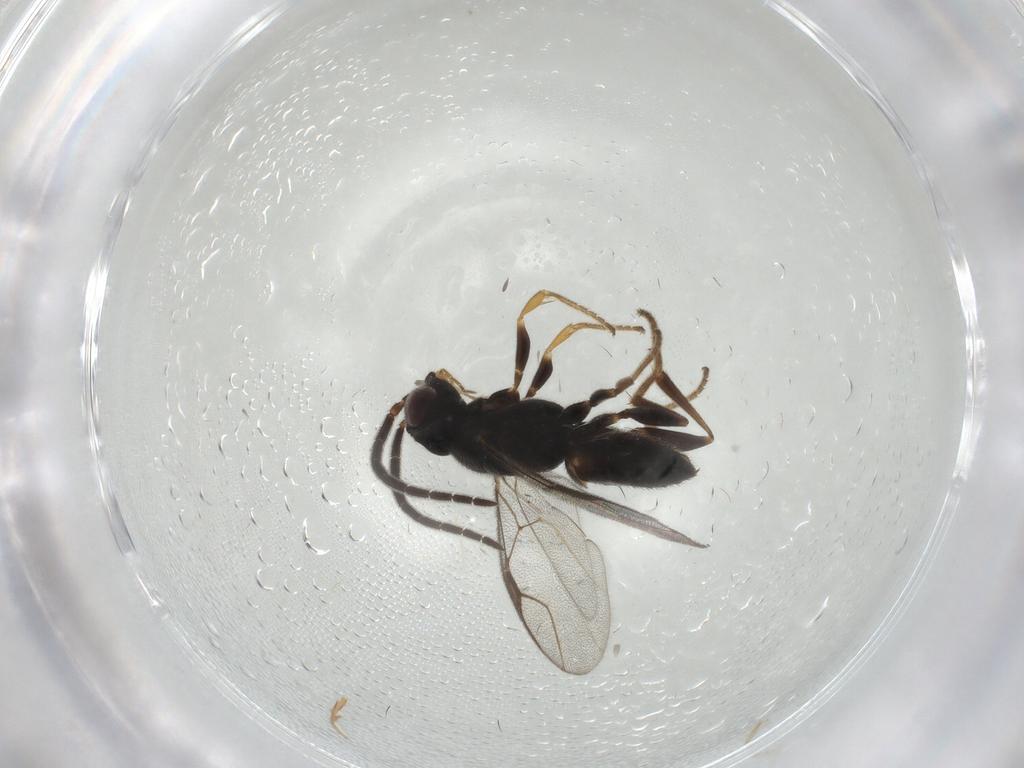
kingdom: Animalia
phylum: Arthropoda
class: Insecta
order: Hymenoptera
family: Dryinidae
